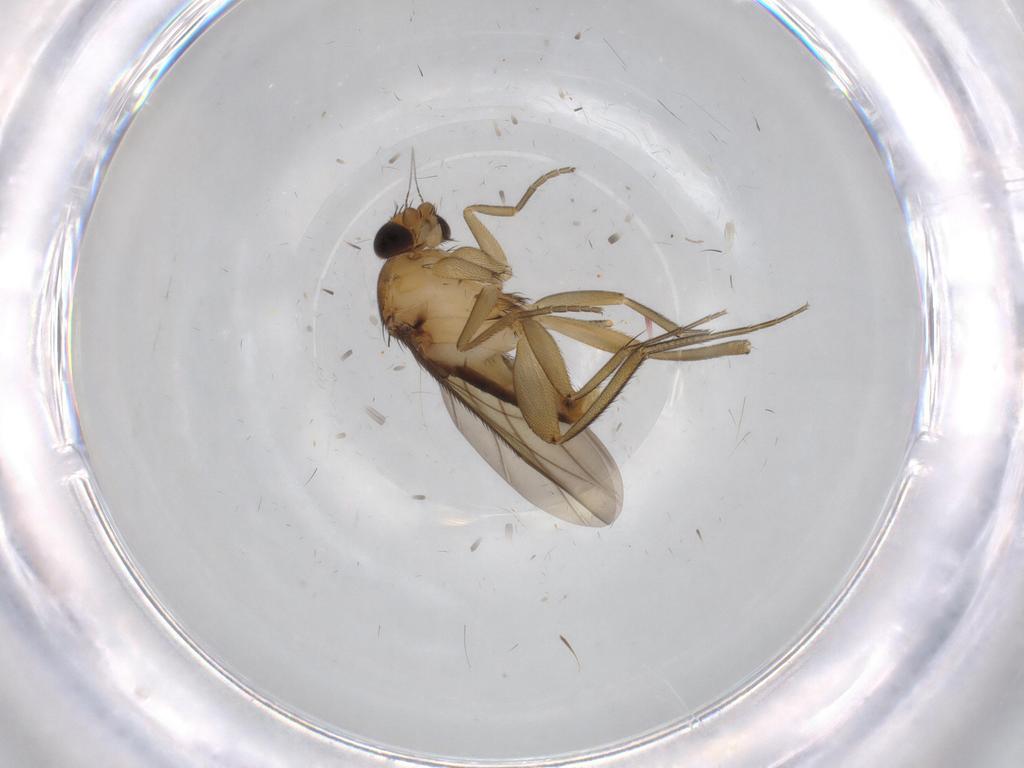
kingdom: Animalia
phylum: Arthropoda
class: Insecta
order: Diptera
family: Phoridae
